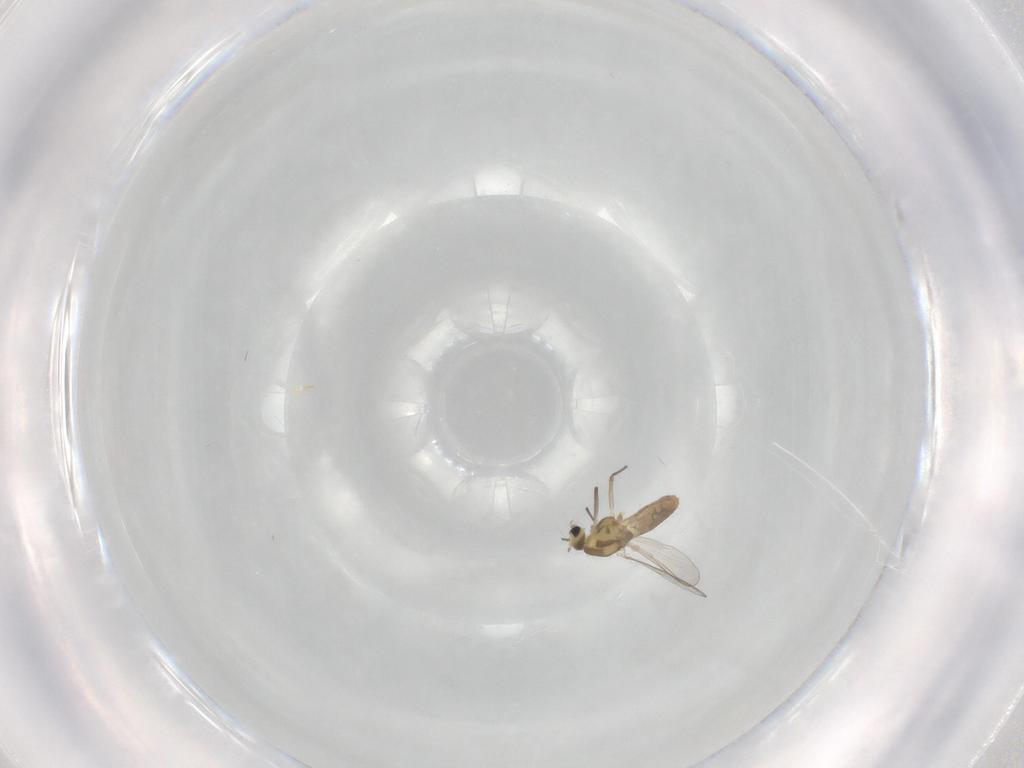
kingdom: Animalia
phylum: Arthropoda
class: Insecta
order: Diptera
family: Chironomidae
